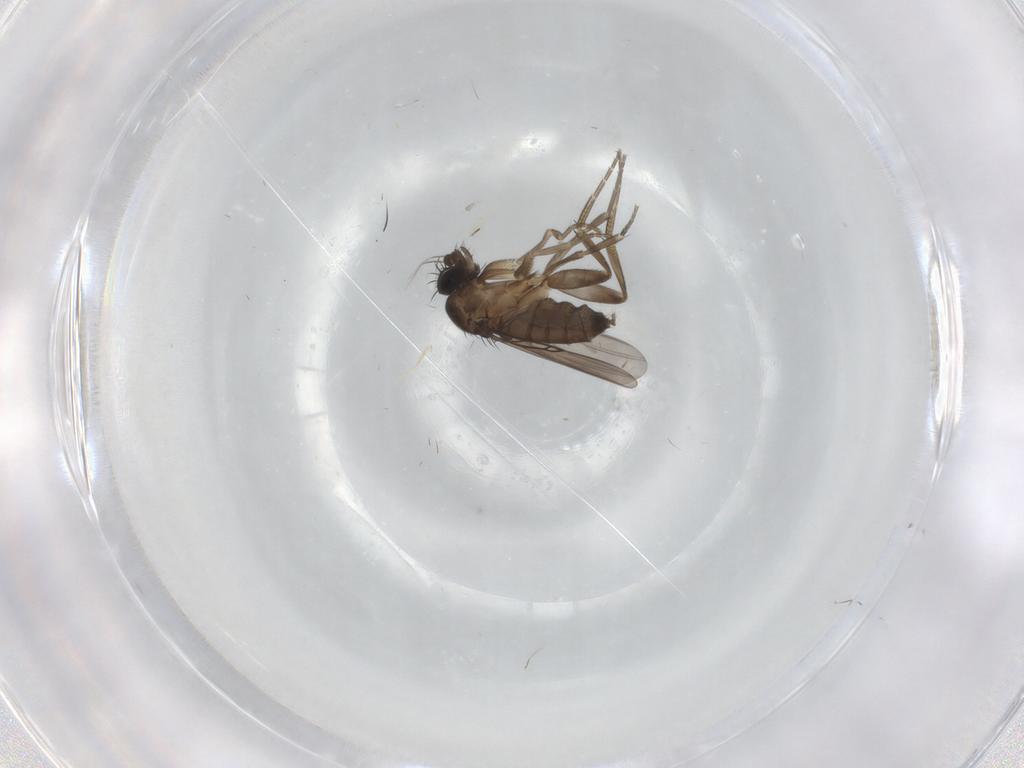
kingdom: Animalia
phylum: Arthropoda
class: Insecta
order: Diptera
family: Phoridae
